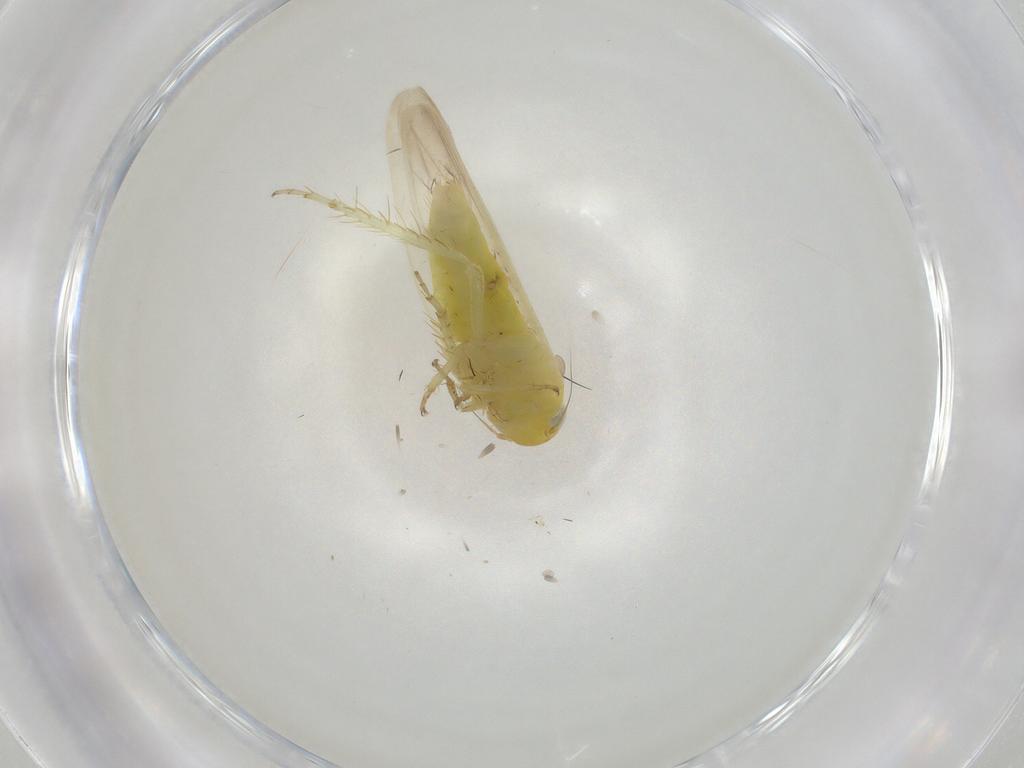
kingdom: Animalia
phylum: Arthropoda
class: Insecta
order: Hemiptera
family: Cicadellidae
